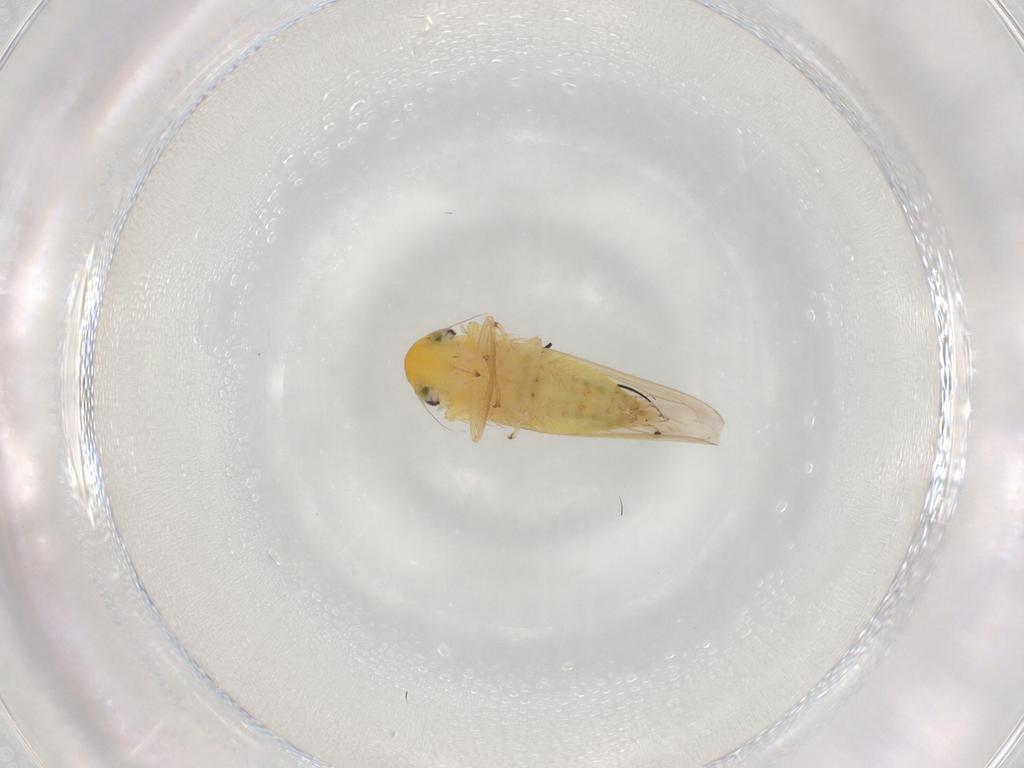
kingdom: Animalia
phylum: Arthropoda
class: Insecta
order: Hemiptera
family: Cicadellidae
